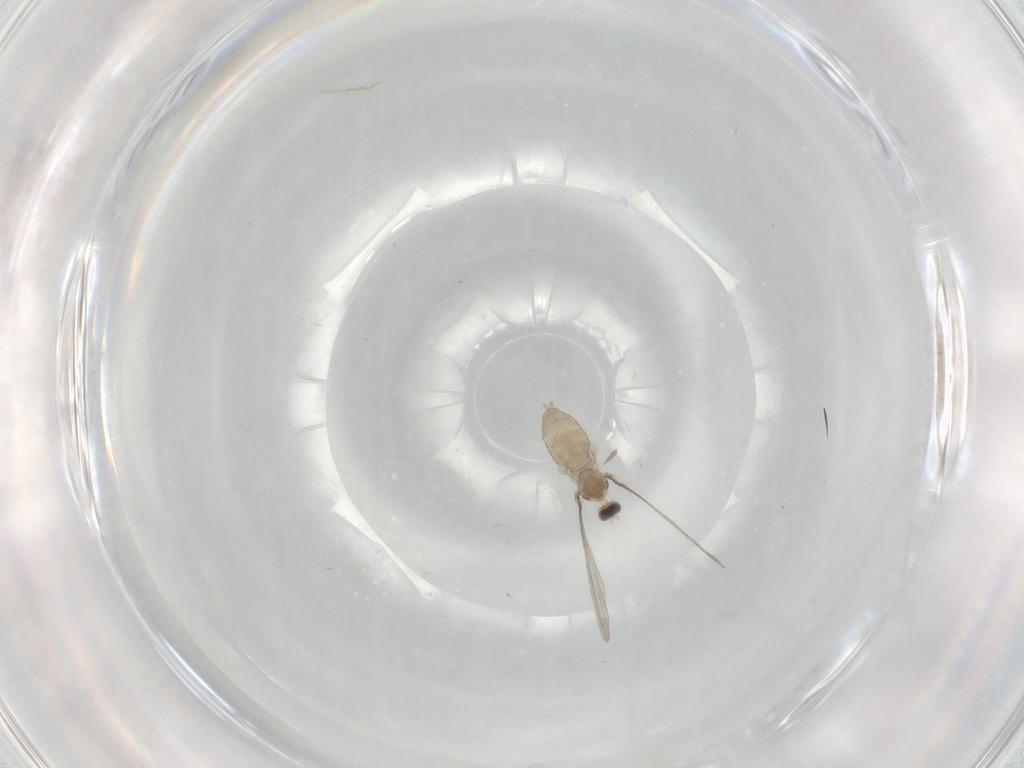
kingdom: Animalia
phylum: Arthropoda
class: Insecta
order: Diptera
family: Cecidomyiidae
